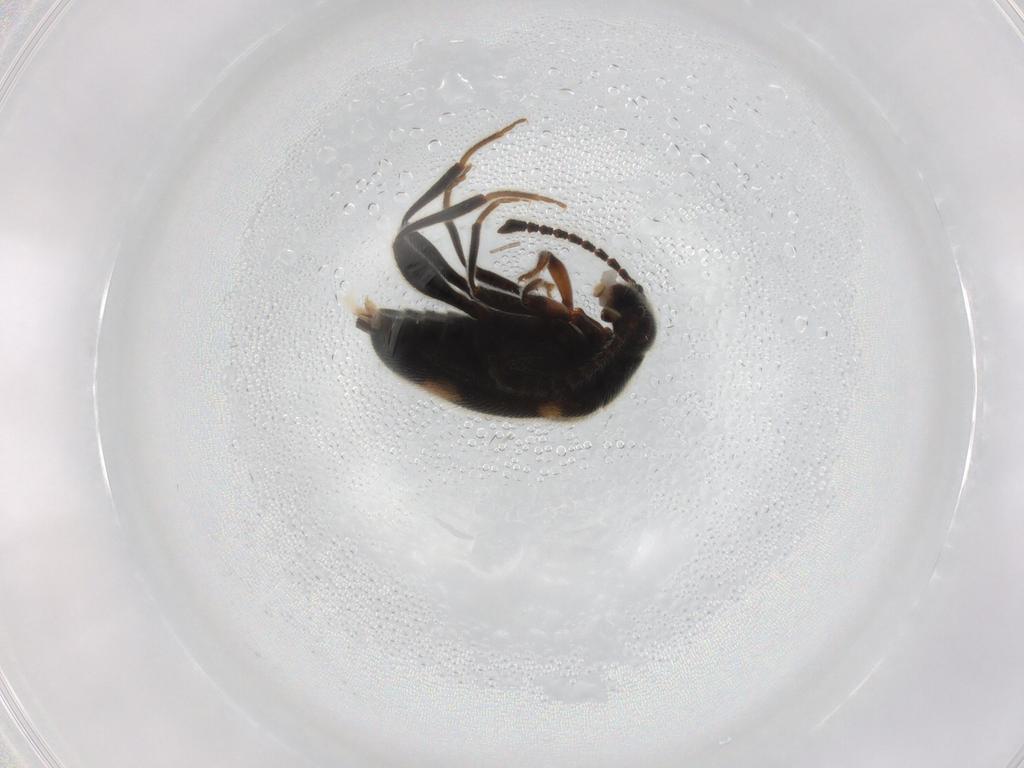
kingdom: Animalia
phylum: Arthropoda
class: Insecta
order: Coleoptera
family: Aderidae
